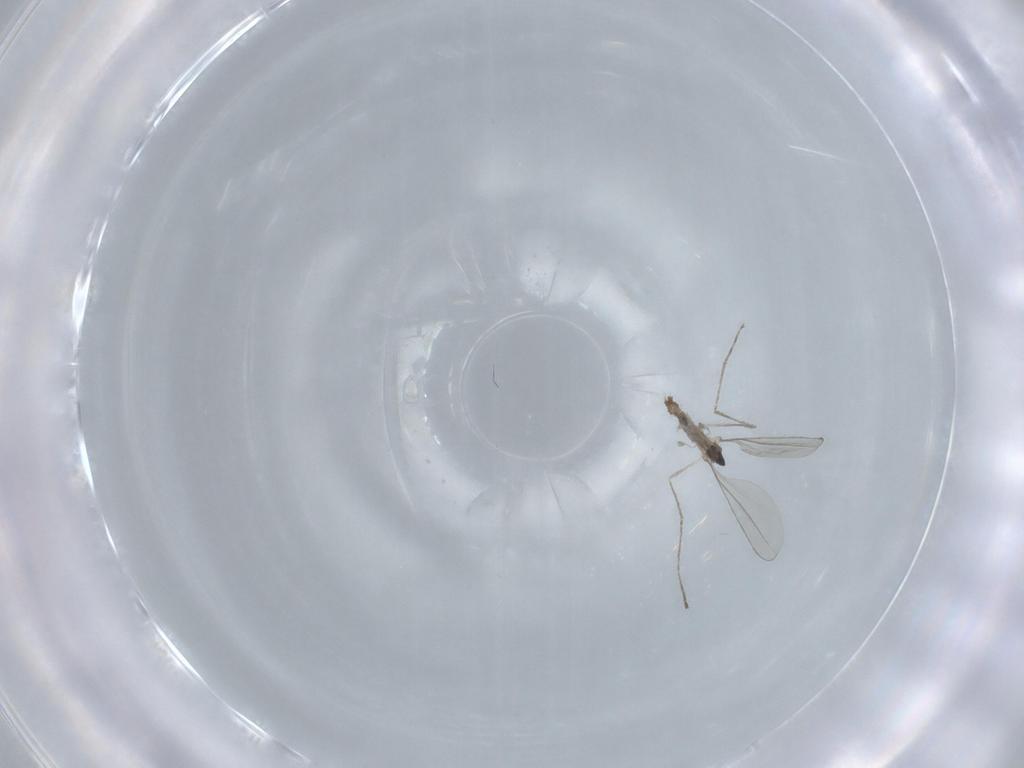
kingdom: Animalia
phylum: Arthropoda
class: Insecta
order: Diptera
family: Cecidomyiidae
